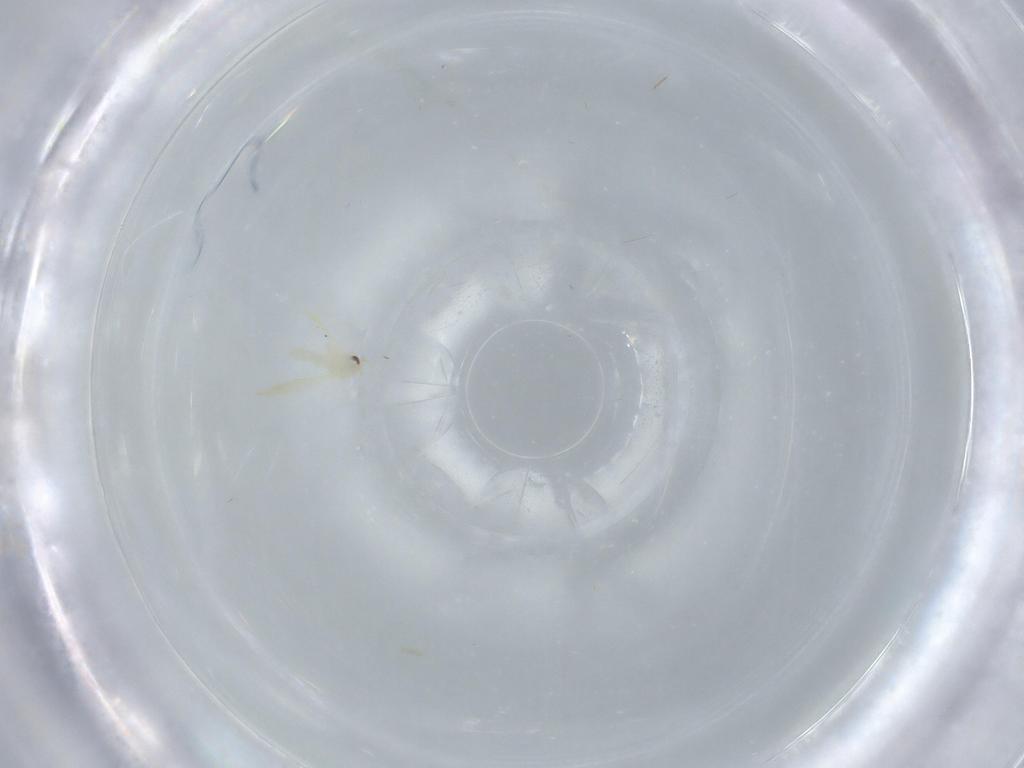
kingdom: Animalia
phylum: Arthropoda
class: Insecta
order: Hemiptera
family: Aleyrodidae
